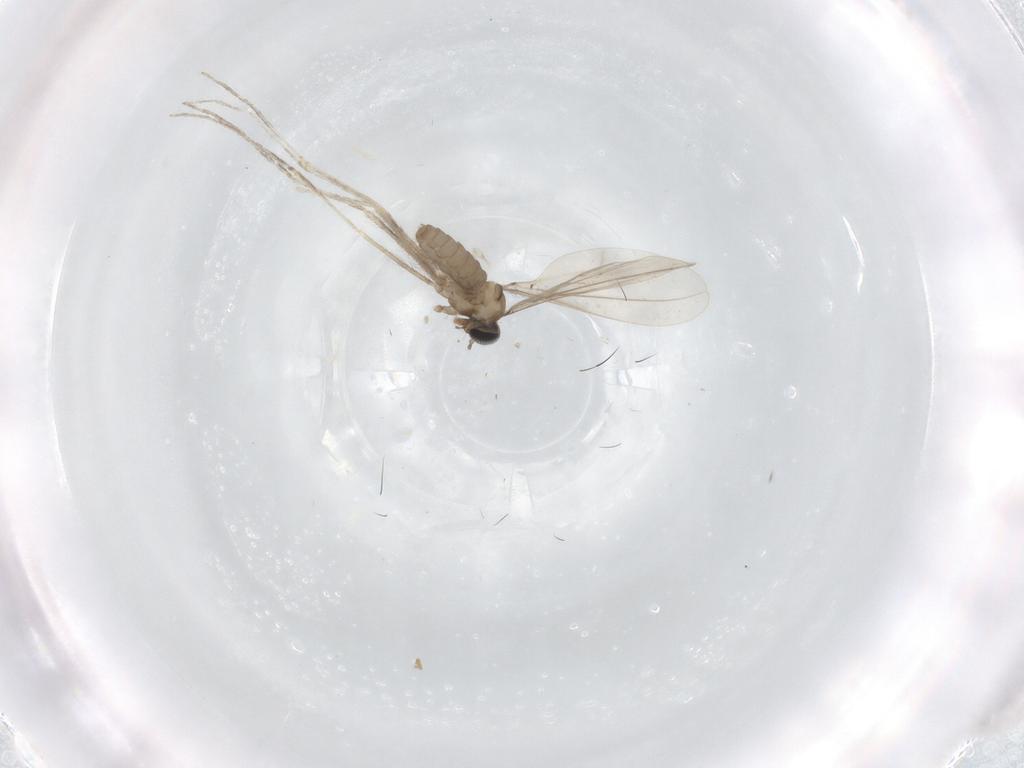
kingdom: Animalia
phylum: Arthropoda
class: Insecta
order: Diptera
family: Cecidomyiidae
